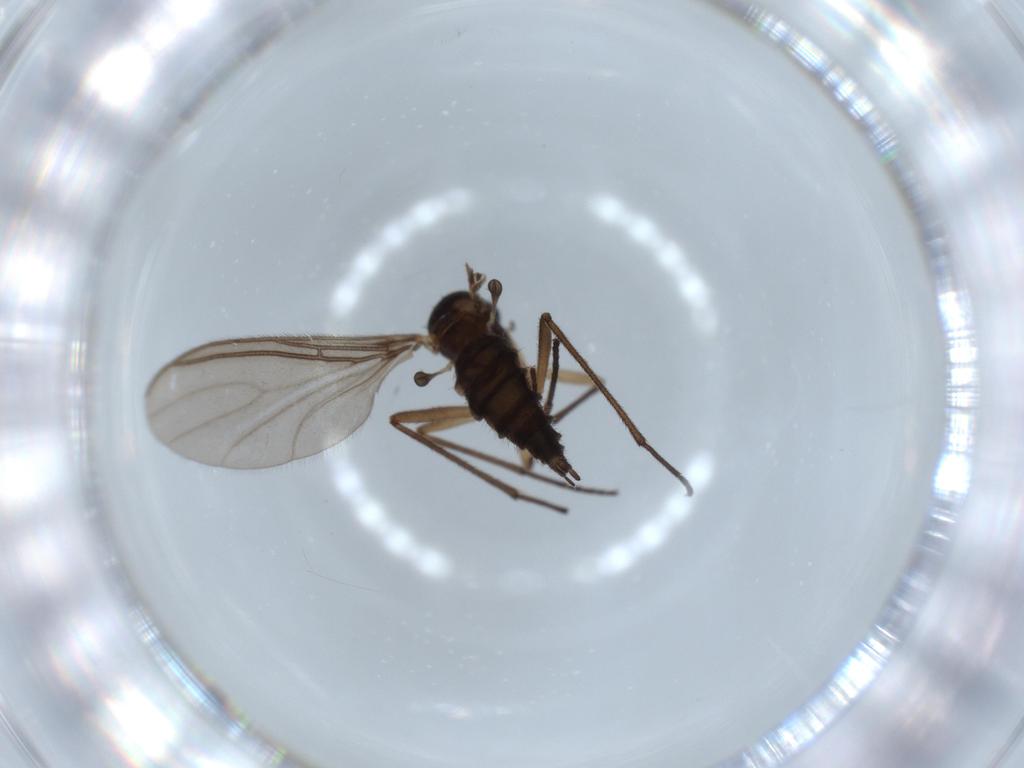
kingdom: Animalia
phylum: Arthropoda
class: Insecta
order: Diptera
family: Sciaridae
